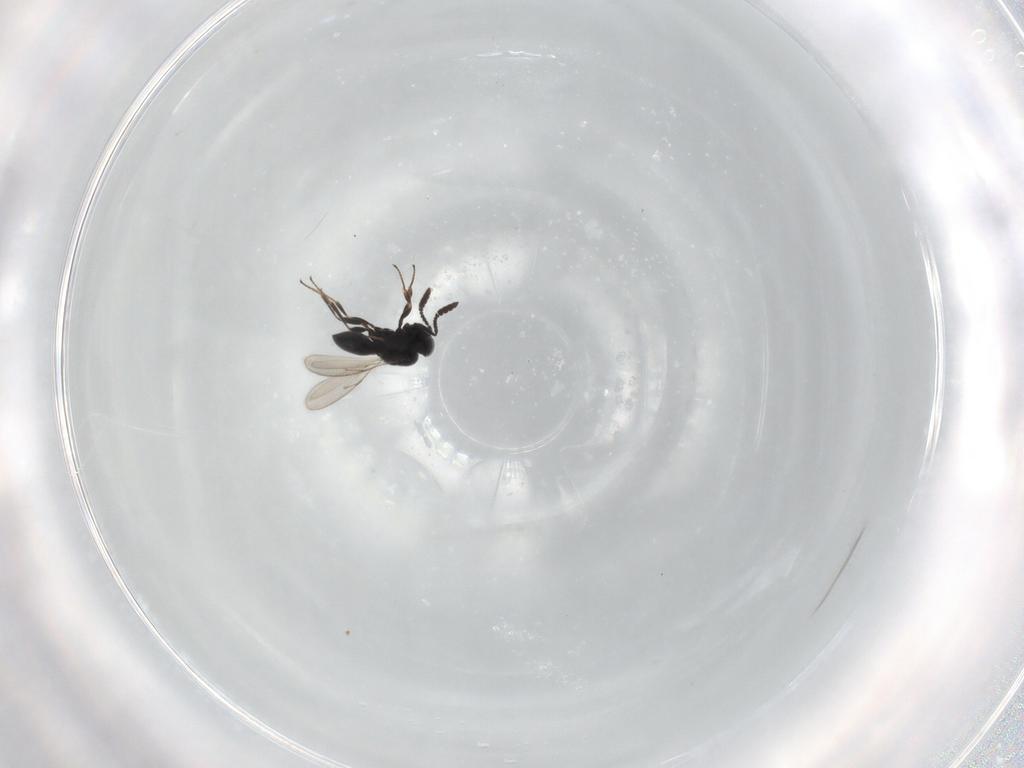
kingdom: Animalia
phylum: Arthropoda
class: Insecta
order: Hymenoptera
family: Scelionidae
